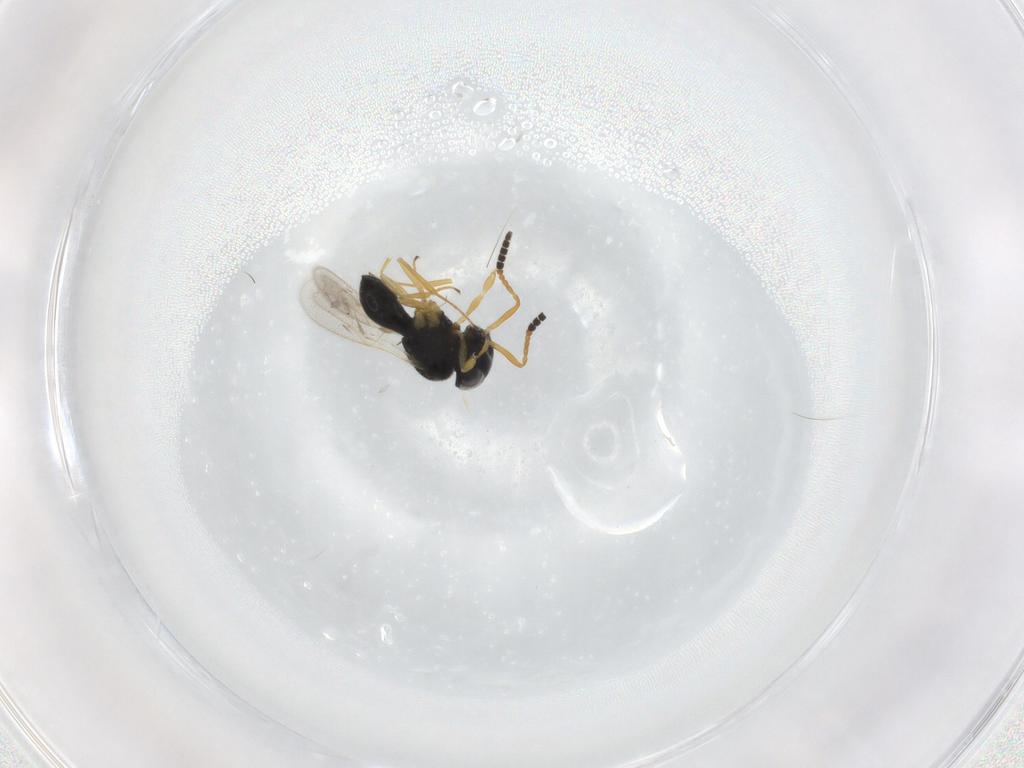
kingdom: Animalia
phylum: Arthropoda
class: Insecta
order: Hymenoptera
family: Scelionidae
